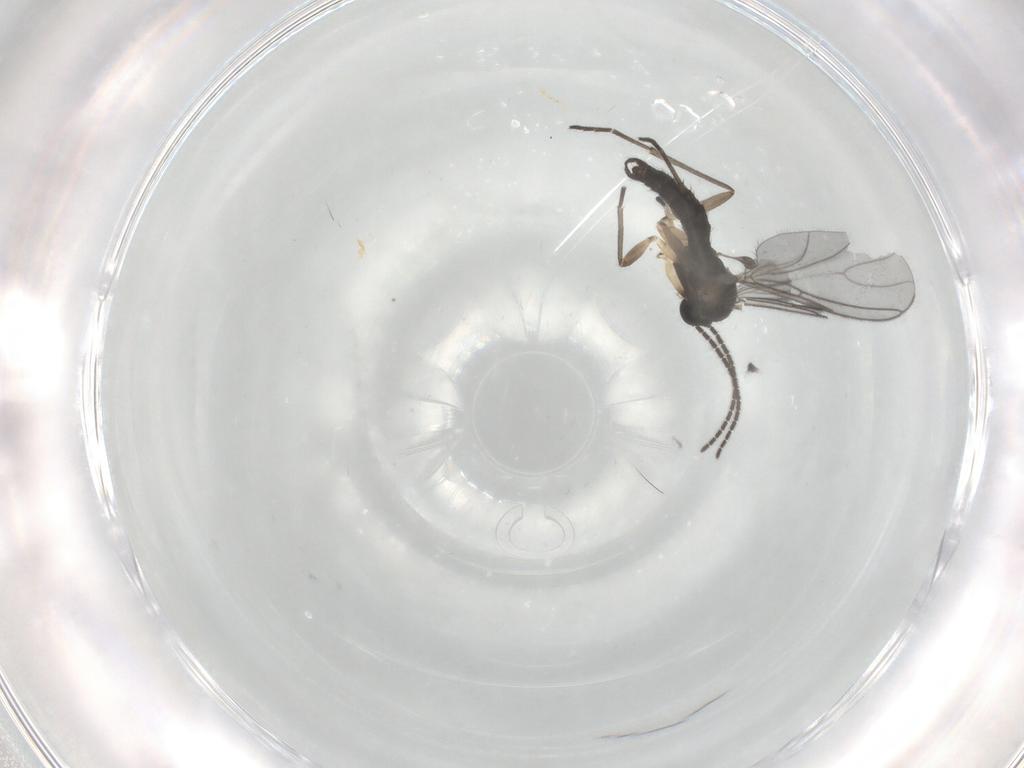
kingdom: Animalia
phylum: Arthropoda
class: Insecta
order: Diptera
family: Sciaridae
